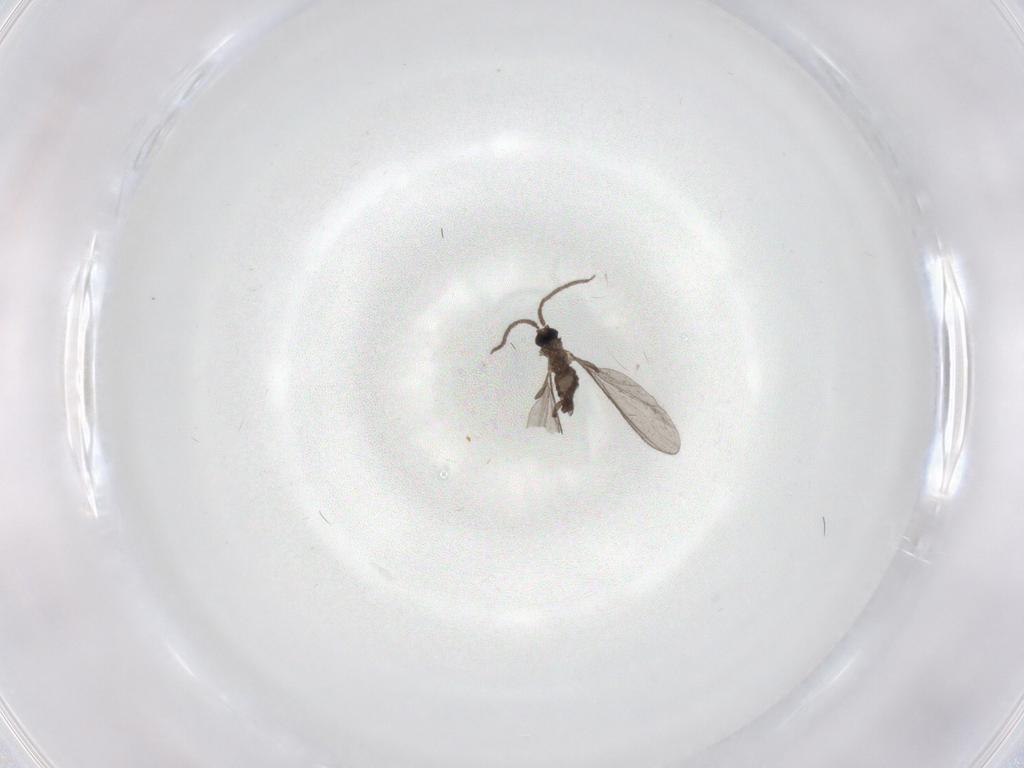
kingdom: Animalia
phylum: Arthropoda
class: Insecta
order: Diptera
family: Sciaridae
